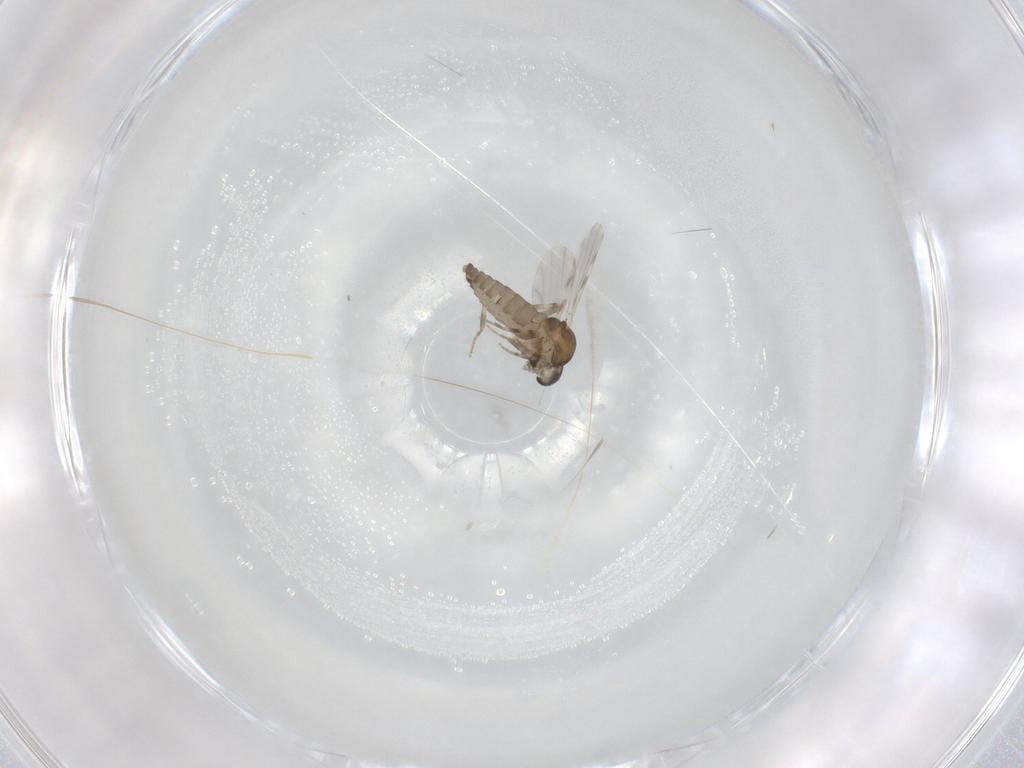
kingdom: Animalia
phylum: Arthropoda
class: Insecta
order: Diptera
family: Ceratopogonidae
